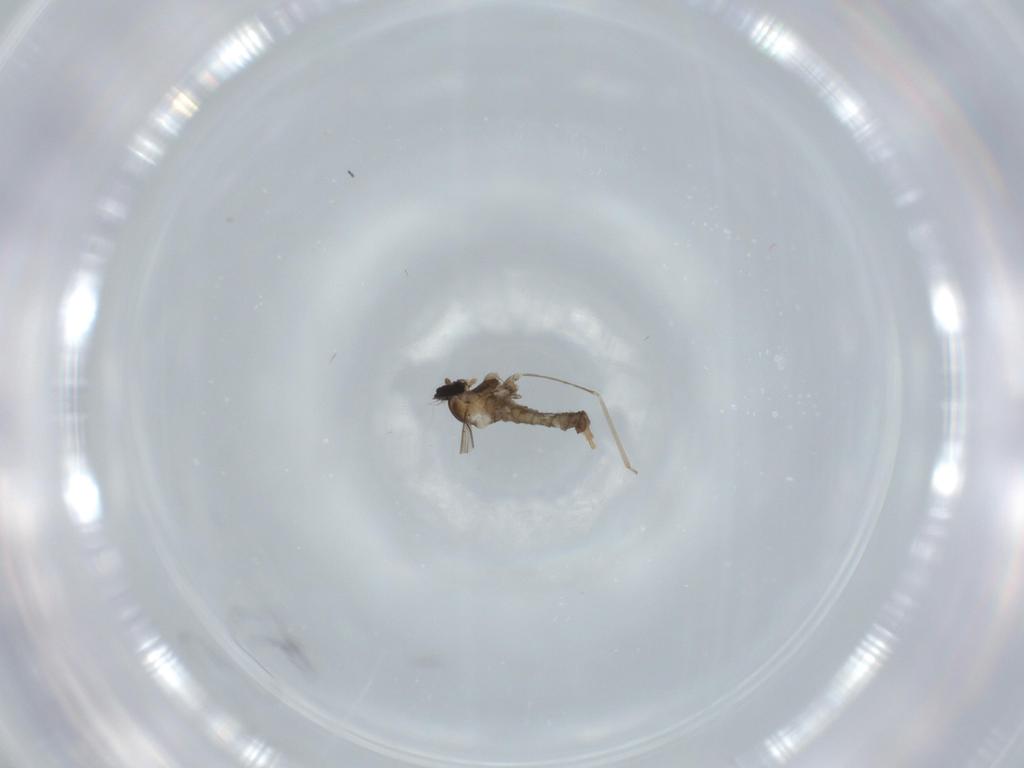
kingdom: Animalia
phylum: Arthropoda
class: Insecta
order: Diptera
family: Cecidomyiidae
